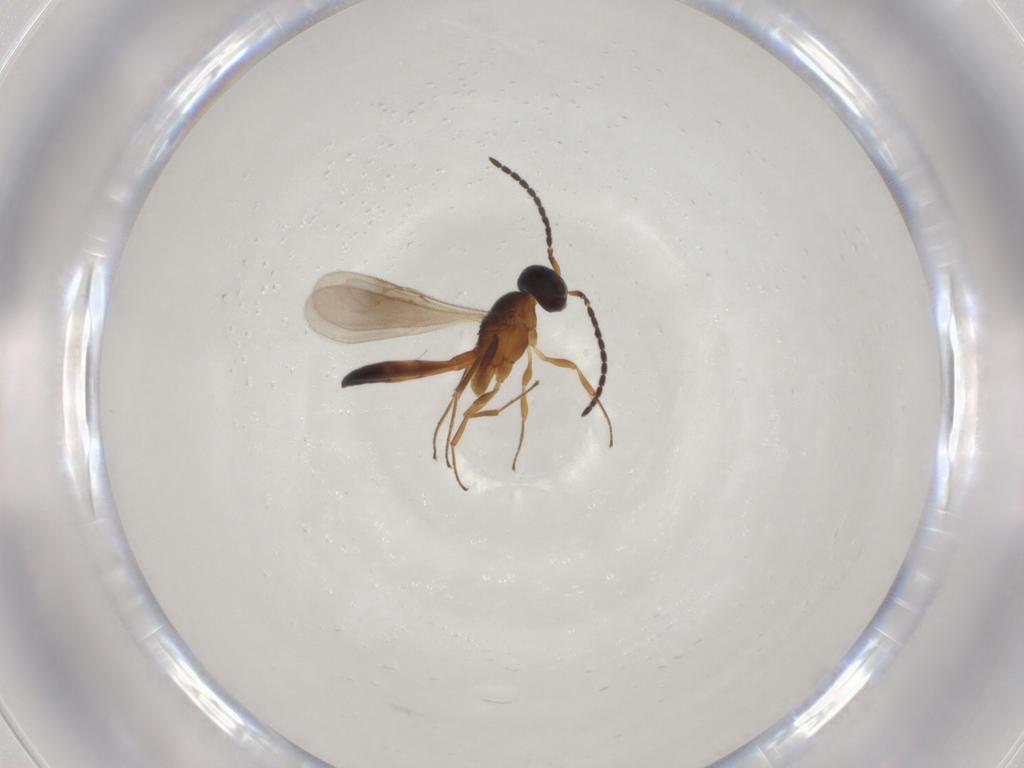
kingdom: Animalia
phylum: Arthropoda
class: Insecta
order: Hymenoptera
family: Scelionidae
